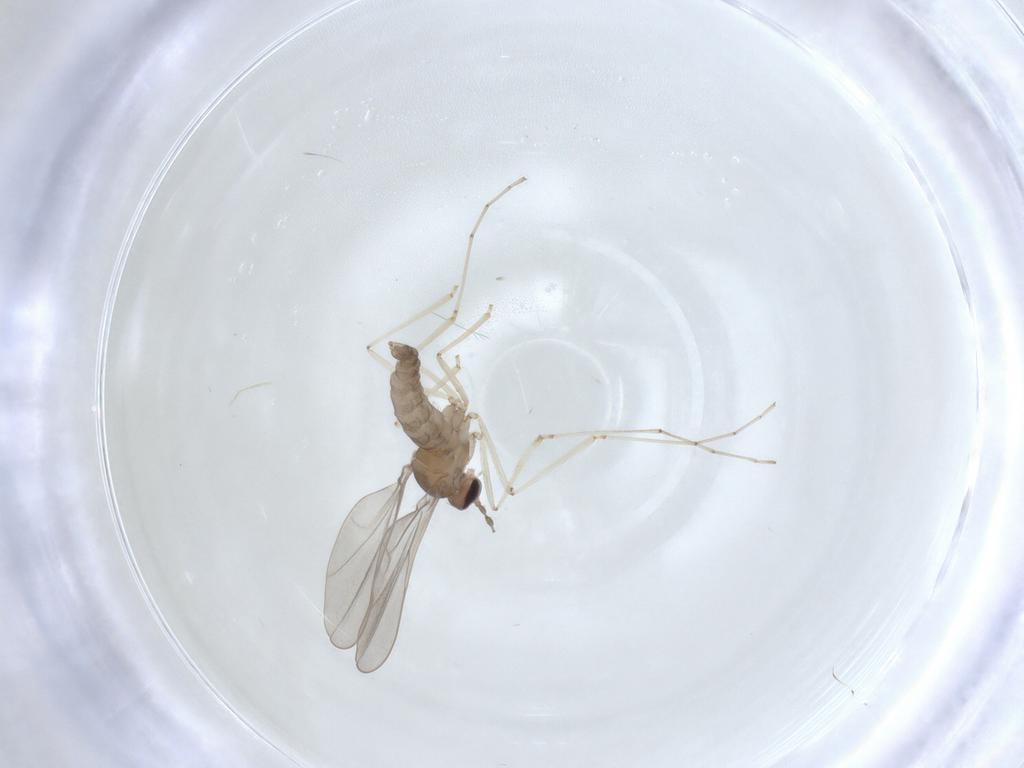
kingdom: Animalia
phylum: Arthropoda
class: Insecta
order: Diptera
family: Cecidomyiidae
